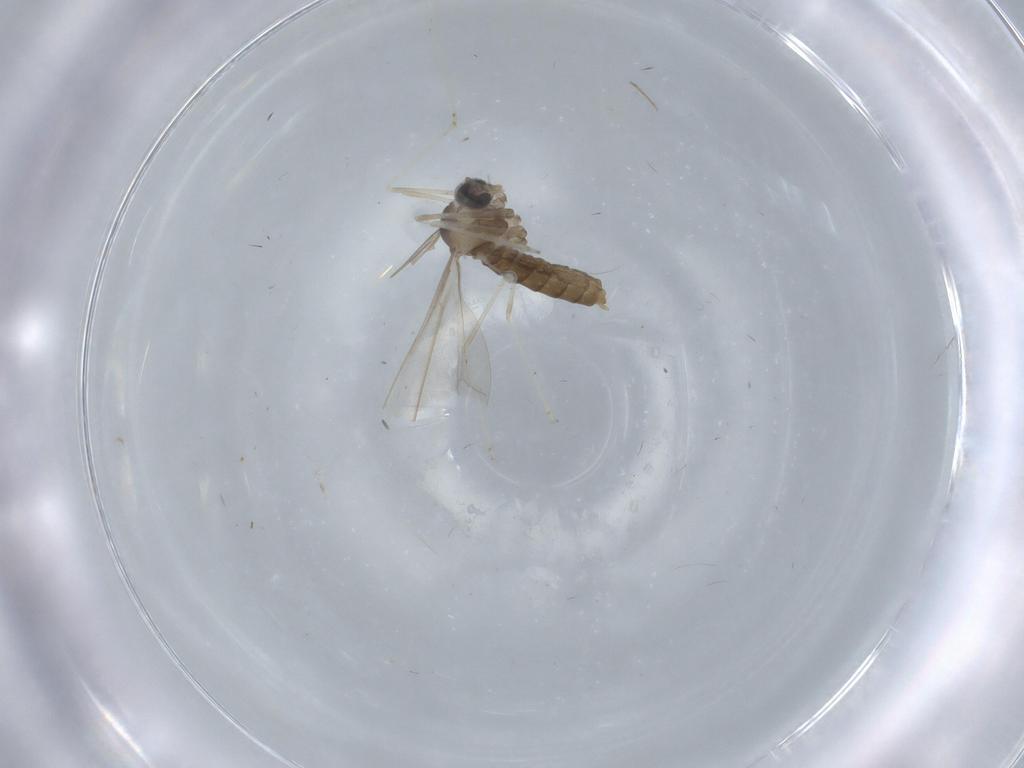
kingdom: Animalia
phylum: Arthropoda
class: Insecta
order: Diptera
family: Cecidomyiidae
